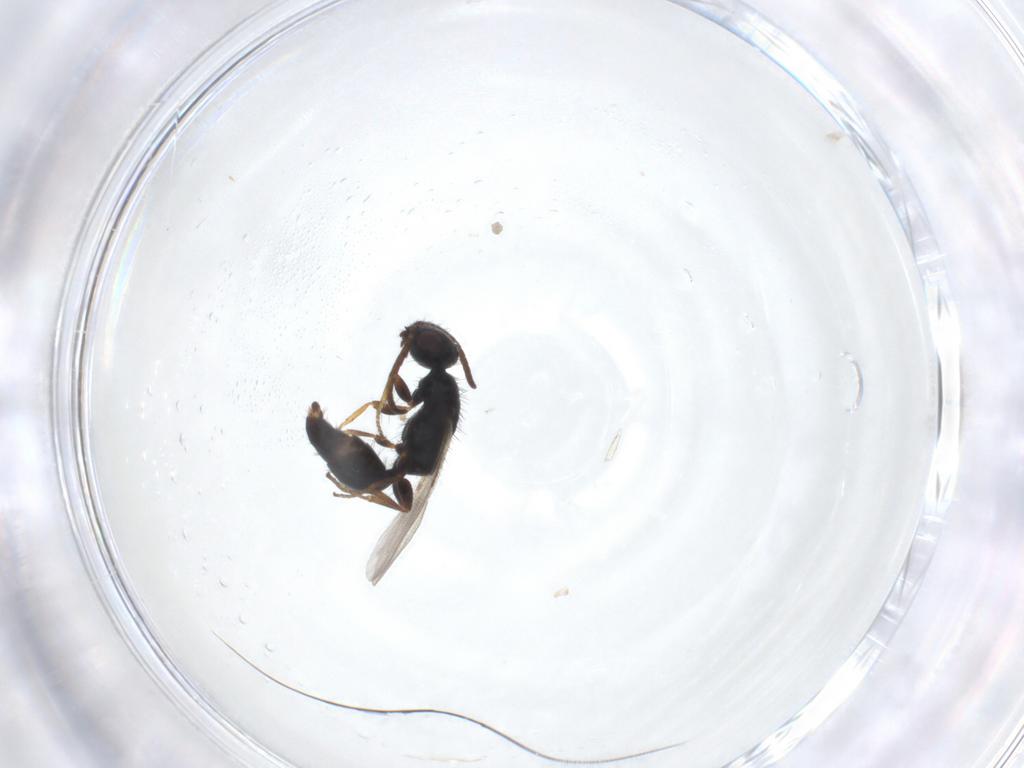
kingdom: Animalia
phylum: Arthropoda
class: Insecta
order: Hymenoptera
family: Bethylidae
